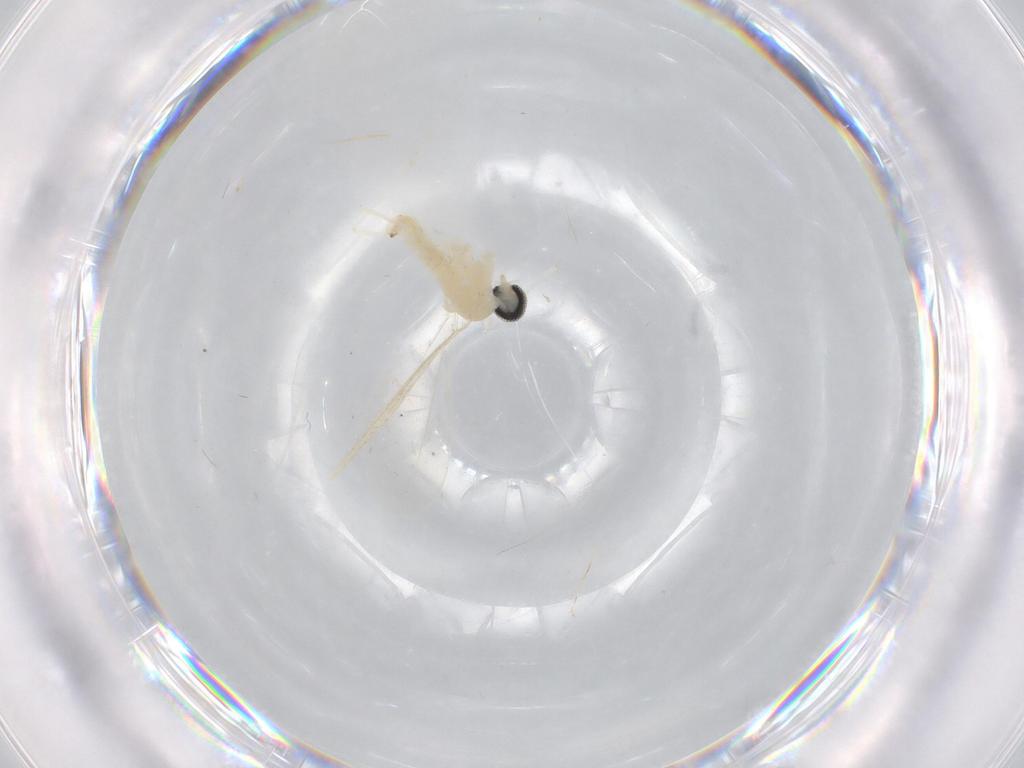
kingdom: Animalia
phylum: Arthropoda
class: Insecta
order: Diptera
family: Cecidomyiidae
